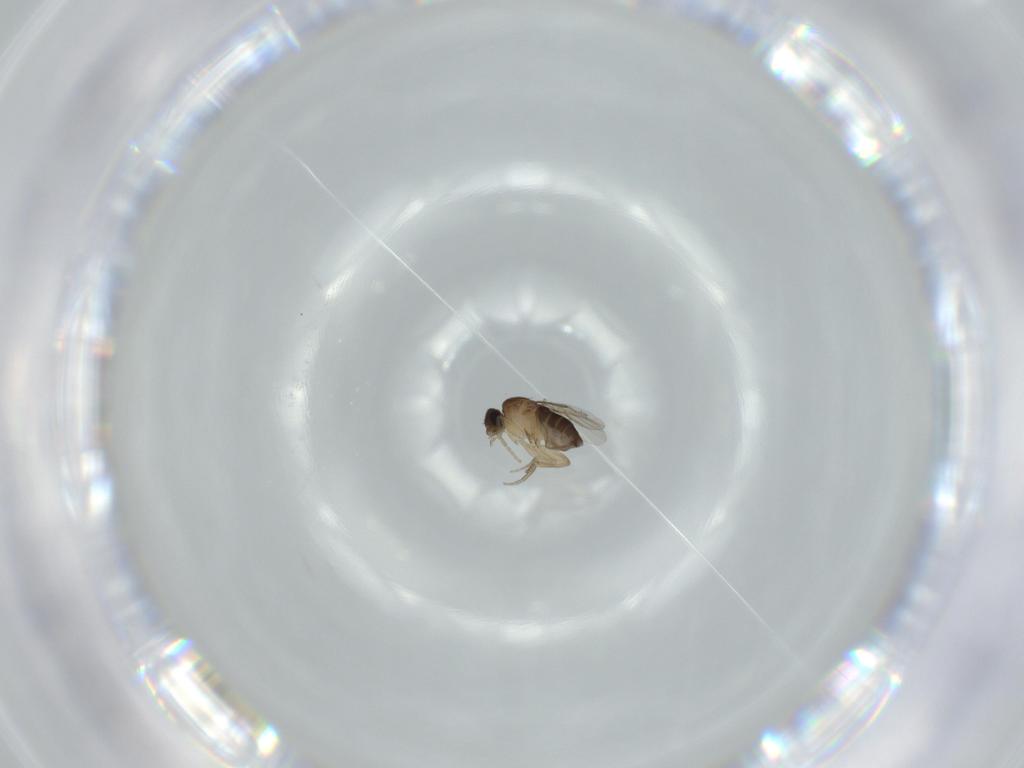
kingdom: Animalia
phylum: Arthropoda
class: Insecta
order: Diptera
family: Phoridae
